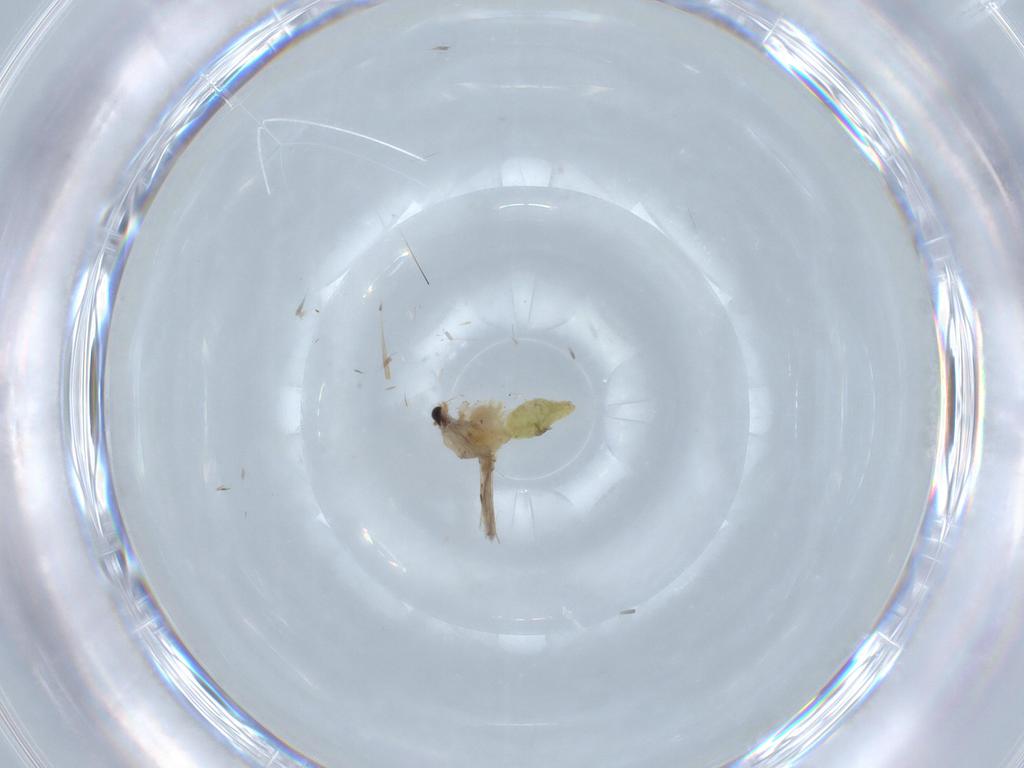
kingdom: Animalia
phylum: Arthropoda
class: Insecta
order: Diptera
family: Chironomidae
